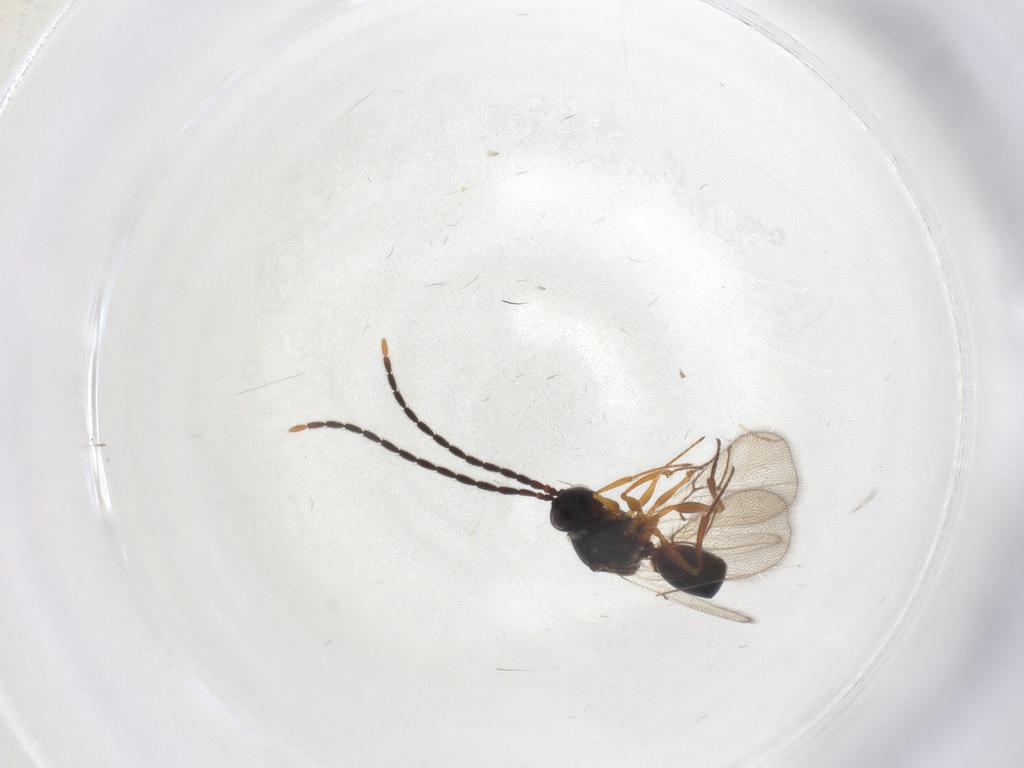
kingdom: Animalia
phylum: Arthropoda
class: Insecta
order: Hymenoptera
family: Figitidae
